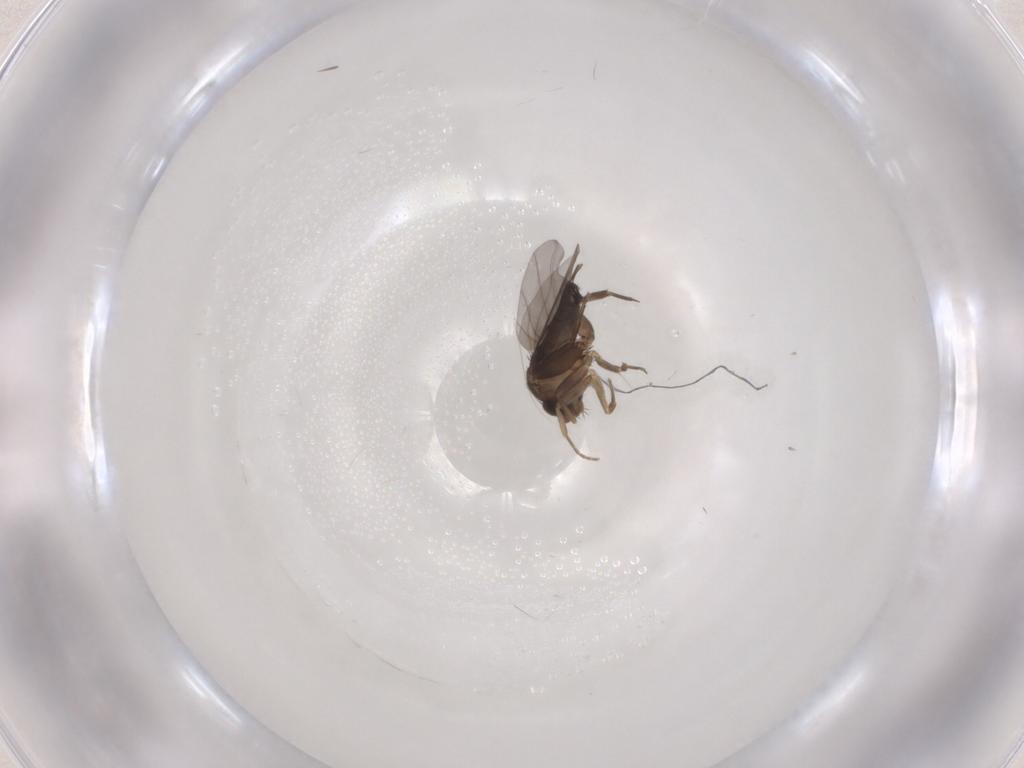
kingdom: Animalia
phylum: Arthropoda
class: Insecta
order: Diptera
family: Phoridae
